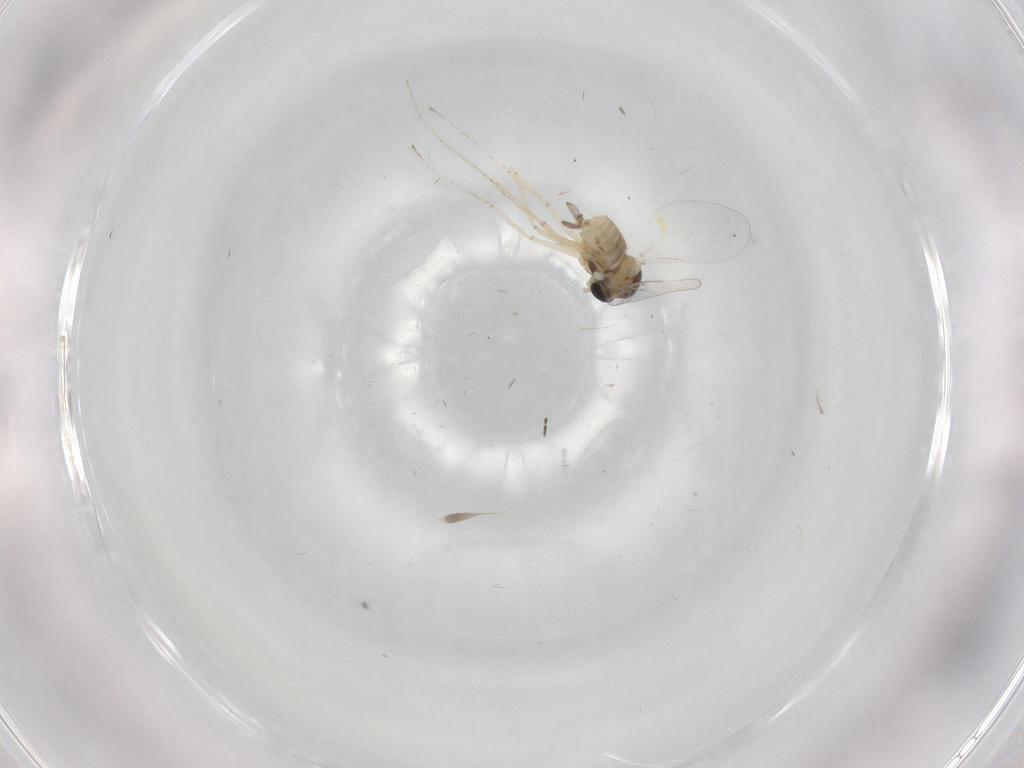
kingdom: Animalia
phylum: Arthropoda
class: Insecta
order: Diptera
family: Cecidomyiidae
